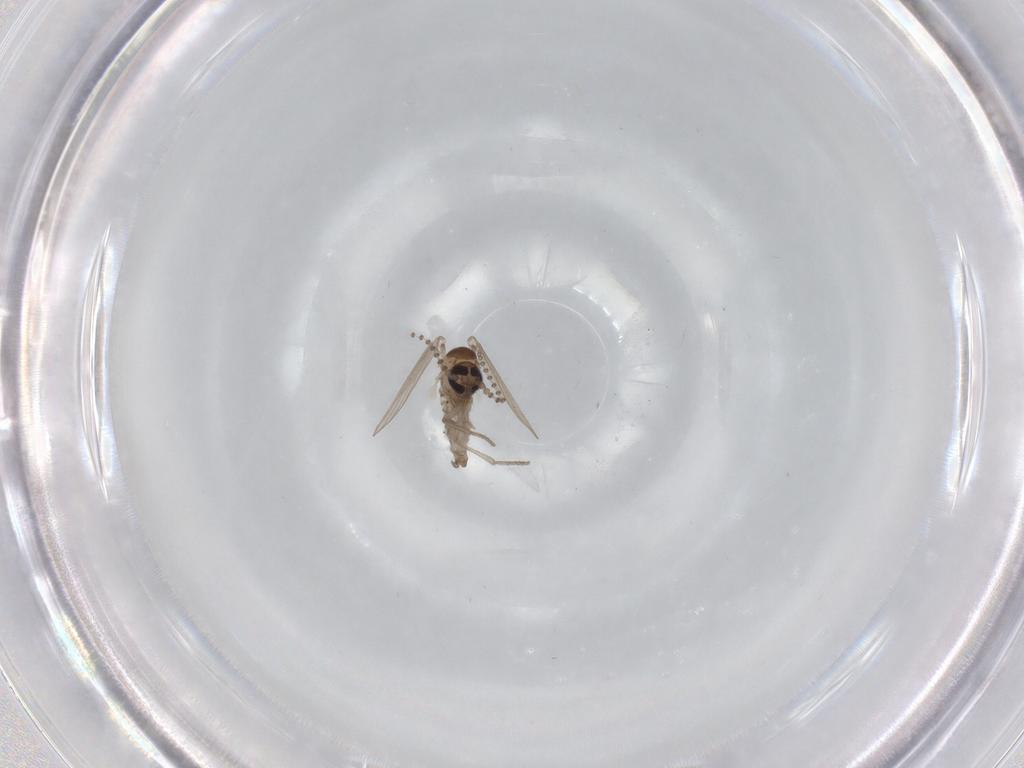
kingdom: Animalia
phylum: Arthropoda
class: Insecta
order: Diptera
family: Psychodidae
